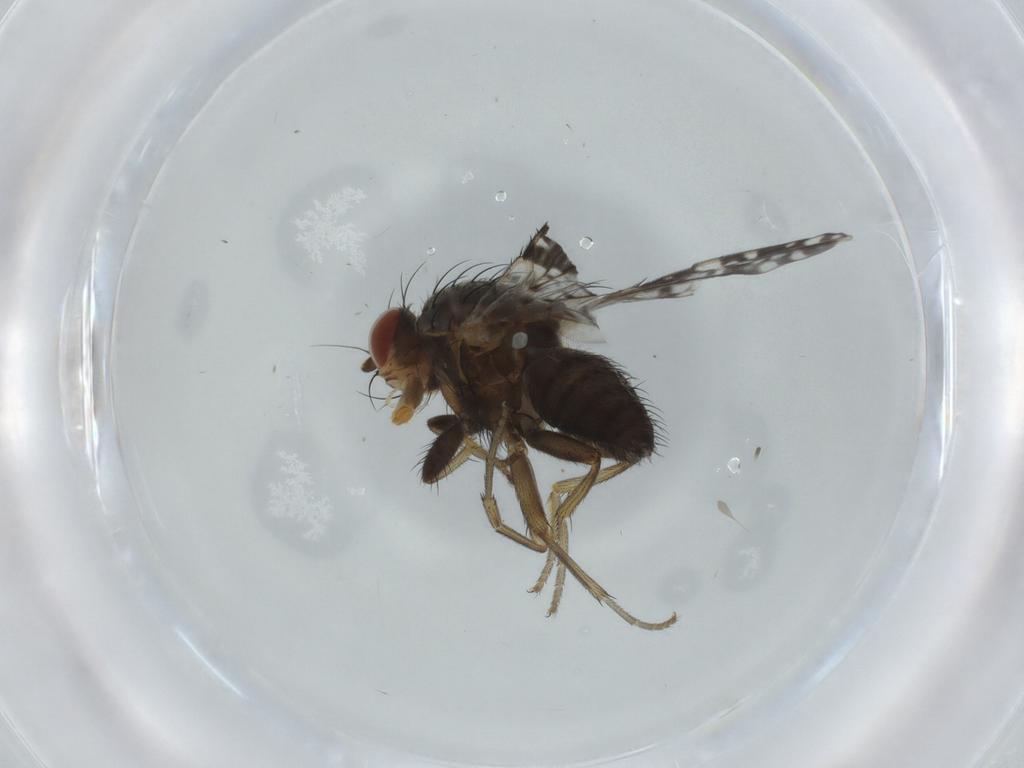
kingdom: Animalia
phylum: Arthropoda
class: Insecta
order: Diptera
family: Tephritidae
